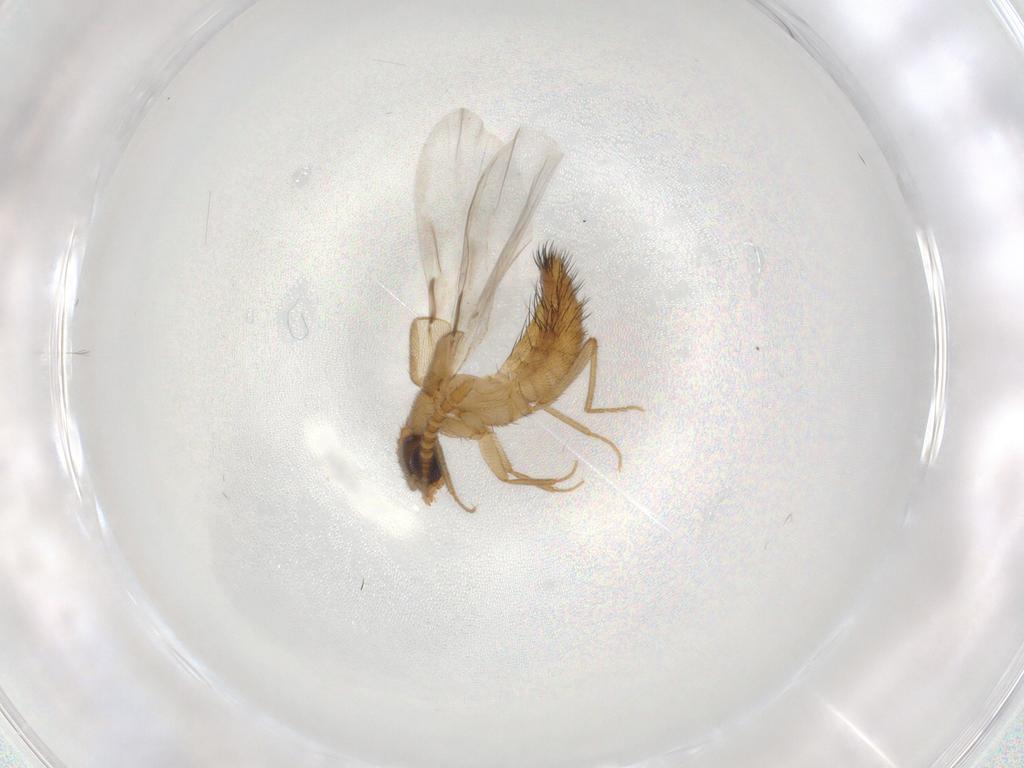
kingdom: Animalia
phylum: Arthropoda
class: Insecta
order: Coleoptera
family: Staphylinidae
